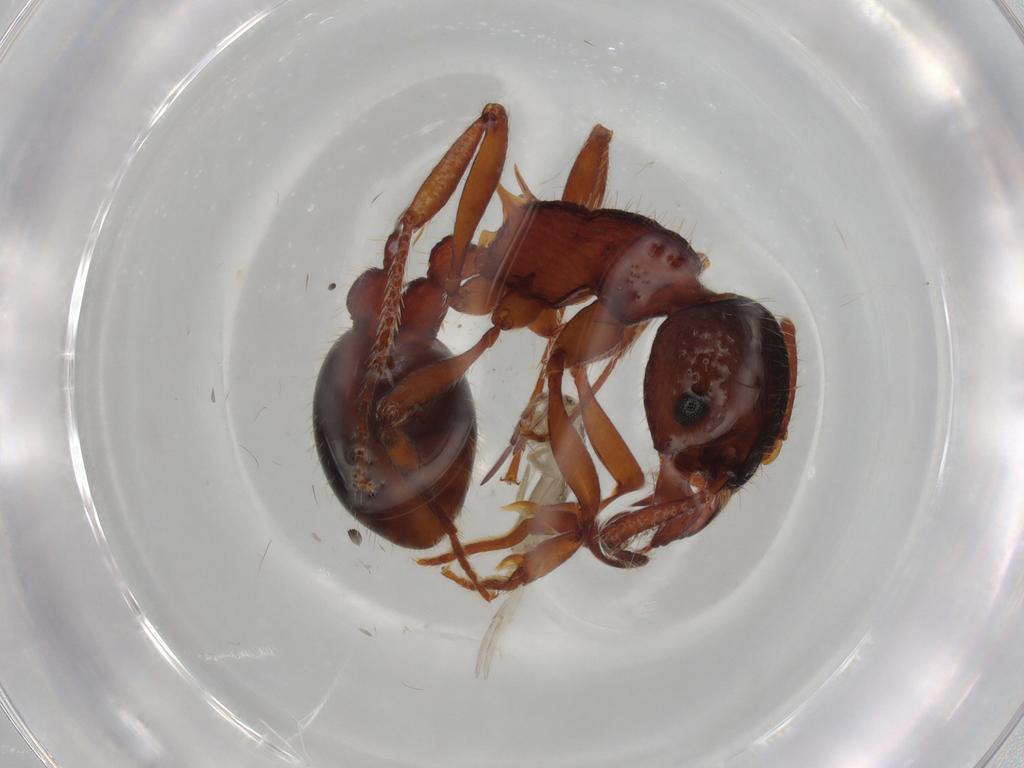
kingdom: Animalia
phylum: Arthropoda
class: Insecta
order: Hymenoptera
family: Formicidae
